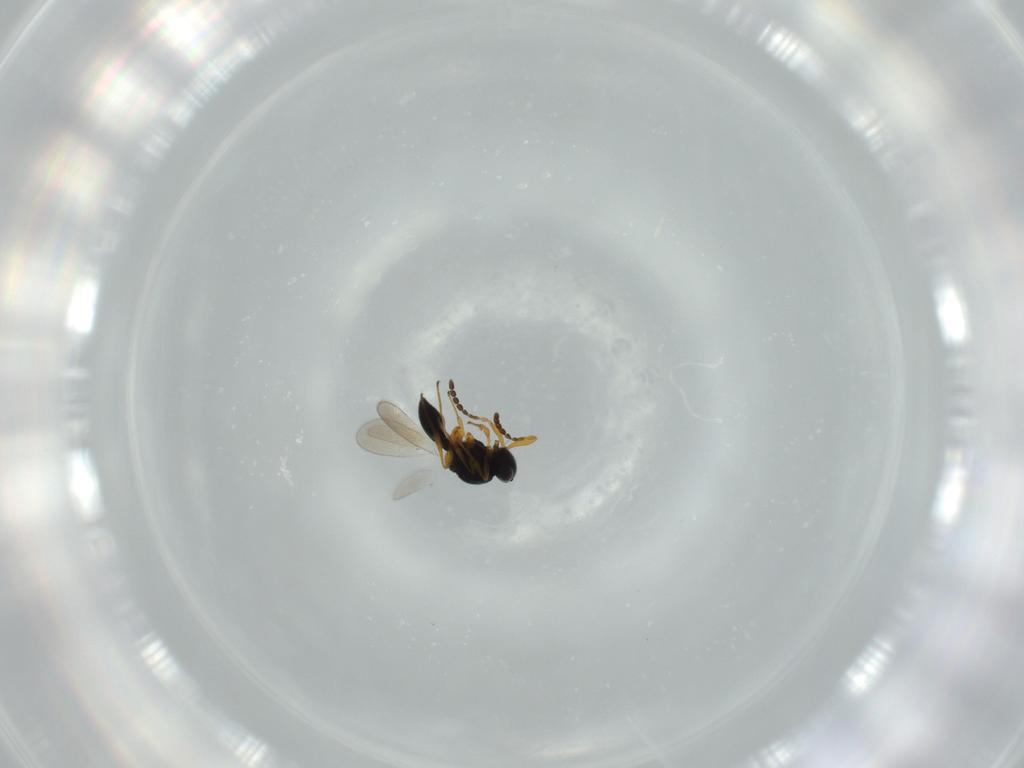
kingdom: Animalia
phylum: Arthropoda
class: Insecta
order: Hymenoptera
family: Platygastridae
